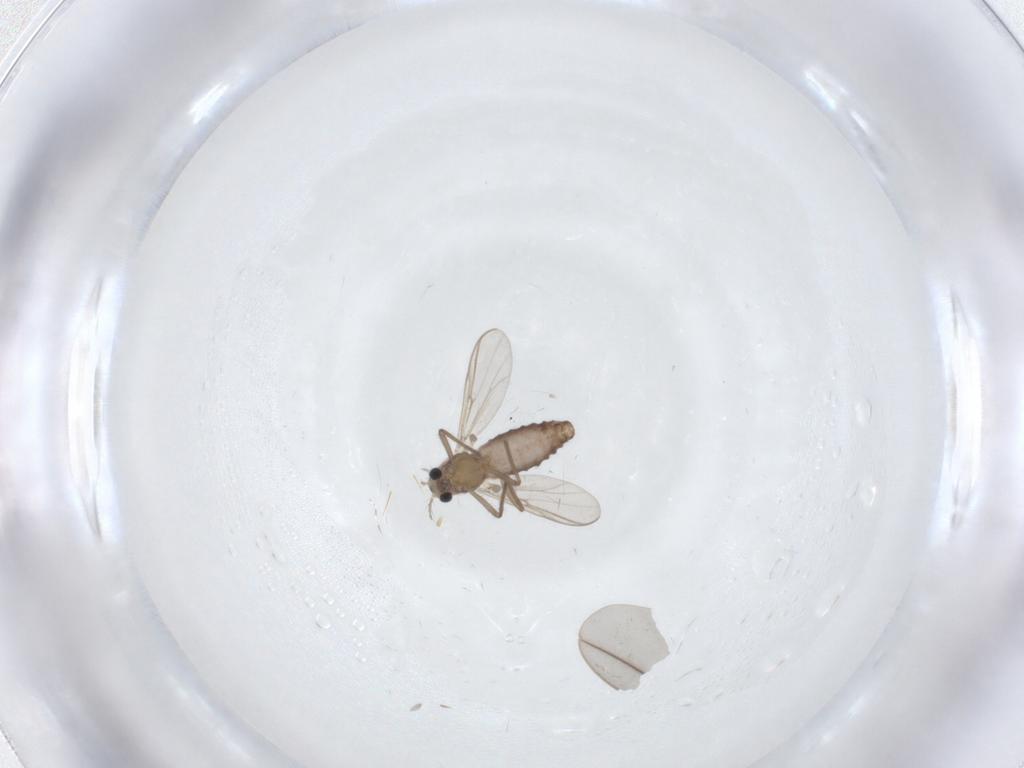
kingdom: Animalia
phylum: Arthropoda
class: Insecta
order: Diptera
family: Chironomidae
